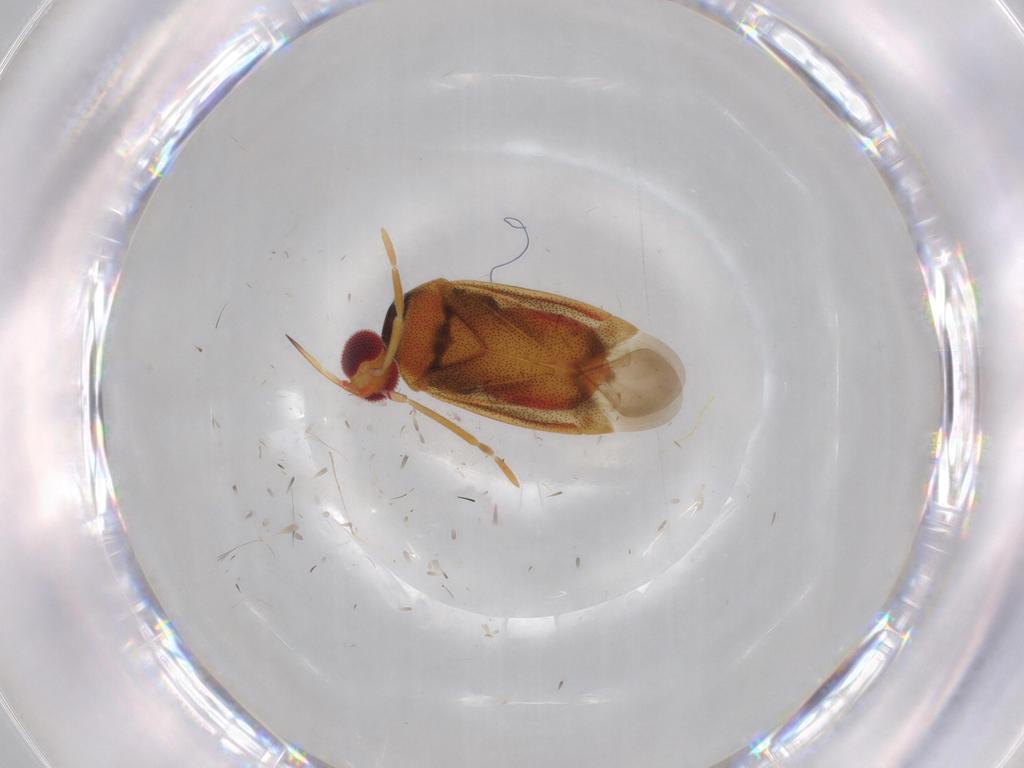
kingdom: Animalia
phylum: Arthropoda
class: Insecta
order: Hemiptera
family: Miridae
